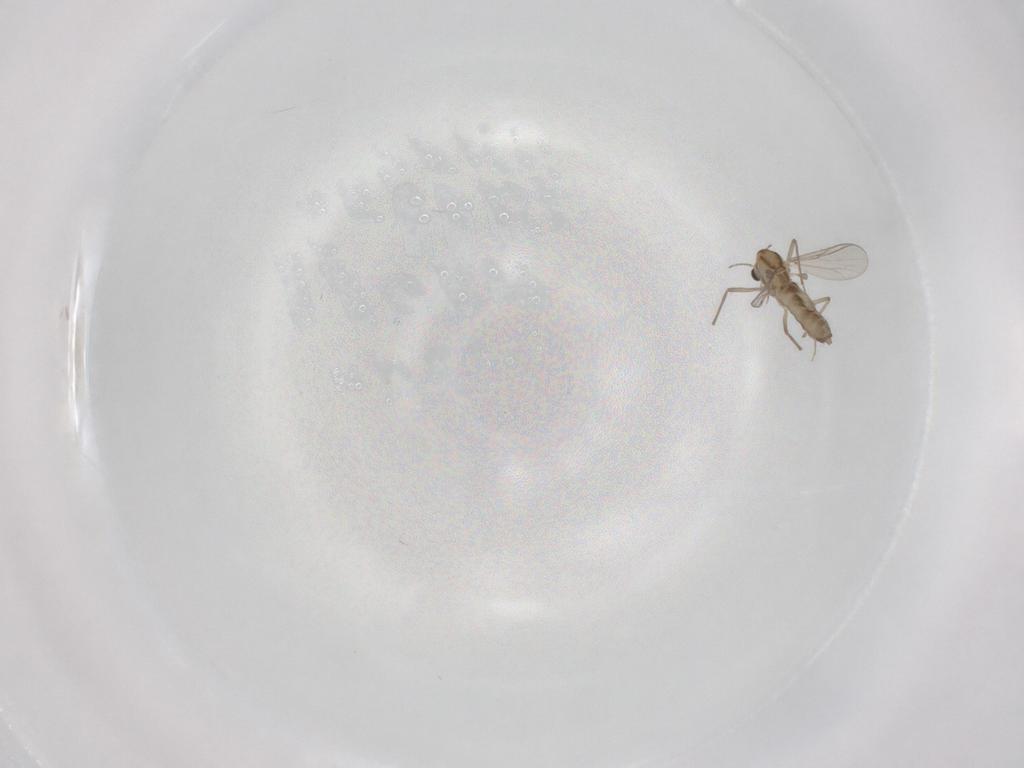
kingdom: Animalia
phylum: Arthropoda
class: Insecta
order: Diptera
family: Chironomidae
